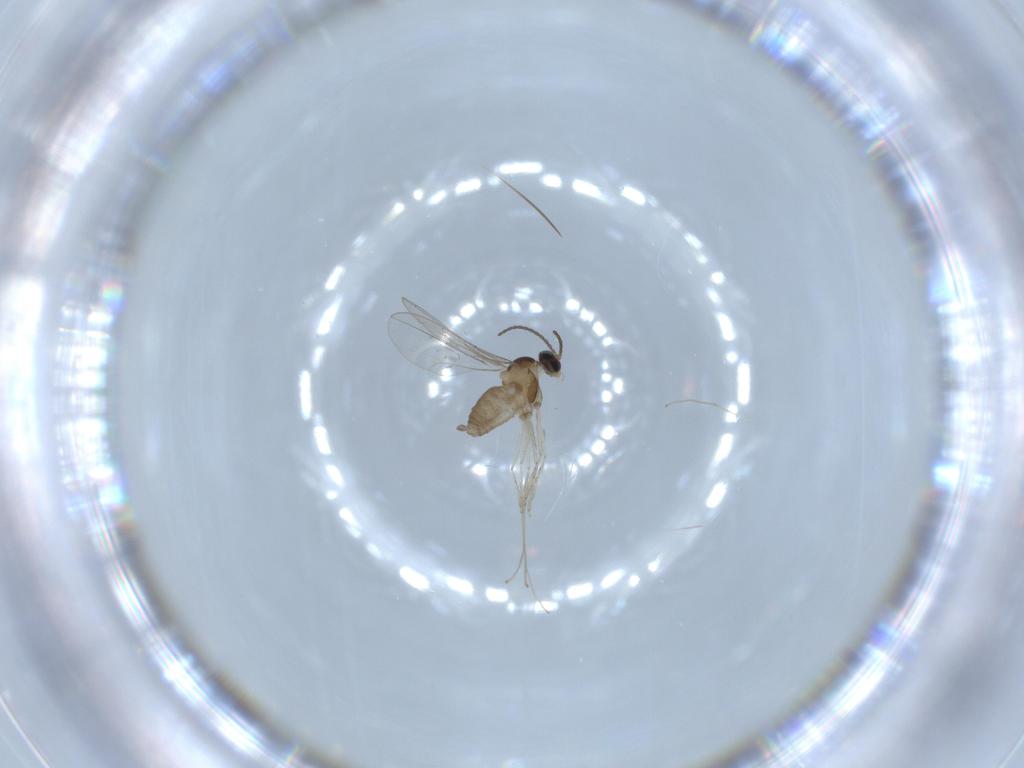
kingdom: Animalia
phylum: Arthropoda
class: Insecta
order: Diptera
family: Cecidomyiidae
